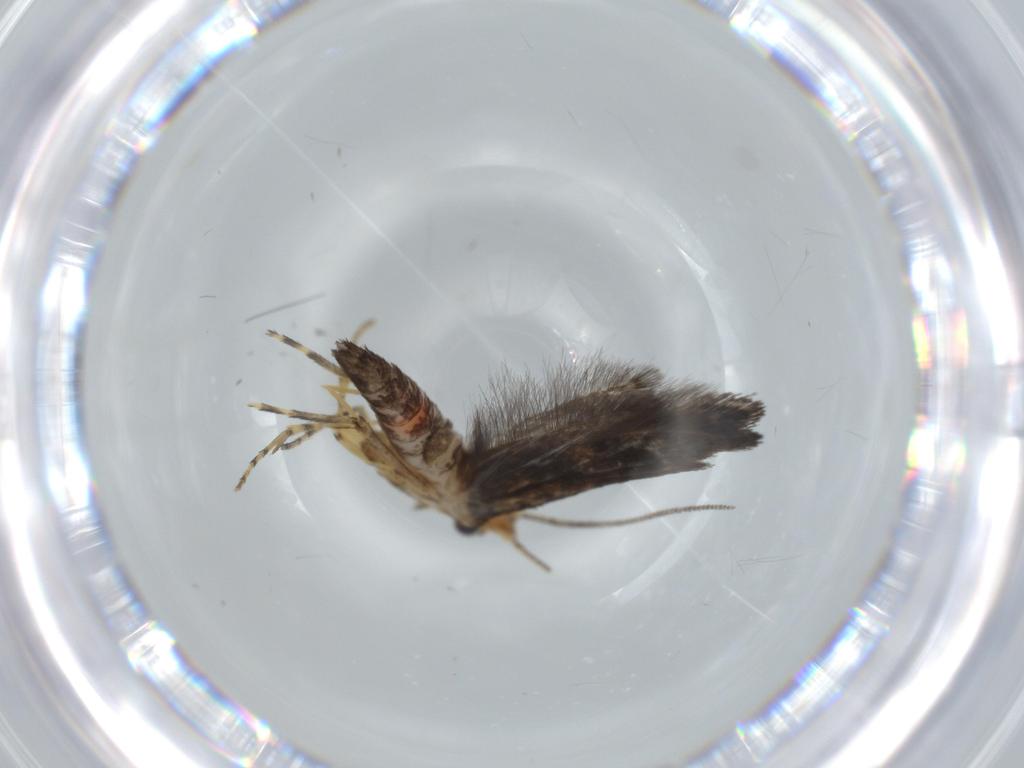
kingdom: Animalia
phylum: Arthropoda
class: Insecta
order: Lepidoptera
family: Argyresthiidae
